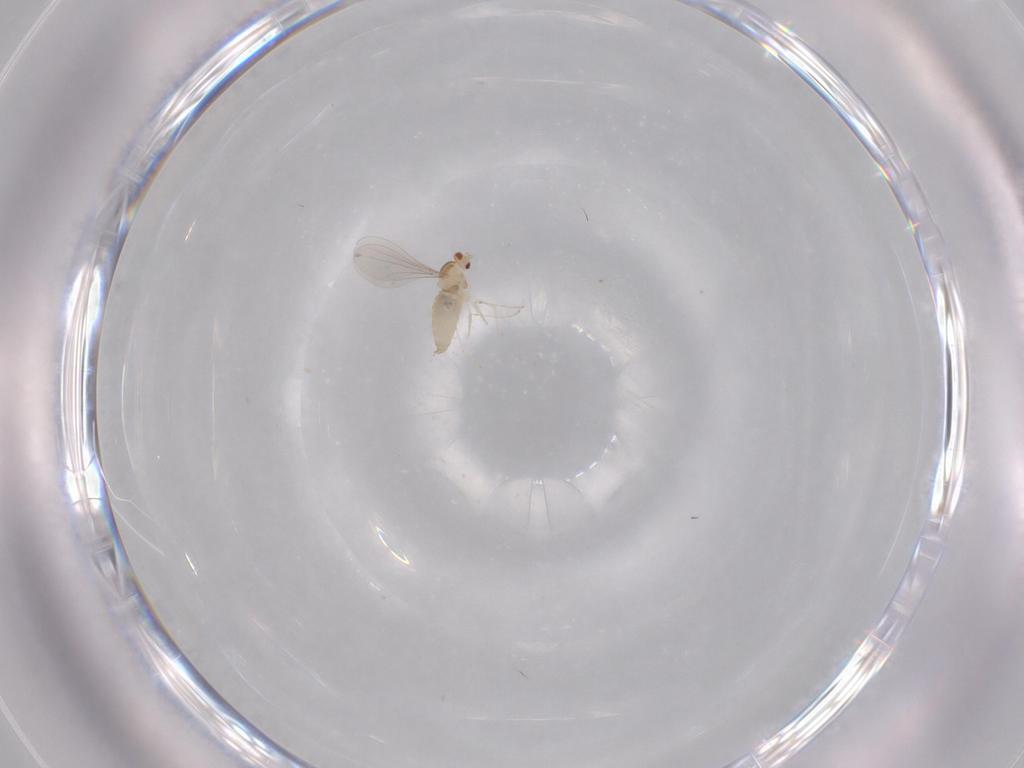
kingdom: Animalia
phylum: Arthropoda
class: Insecta
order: Diptera
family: Cecidomyiidae
